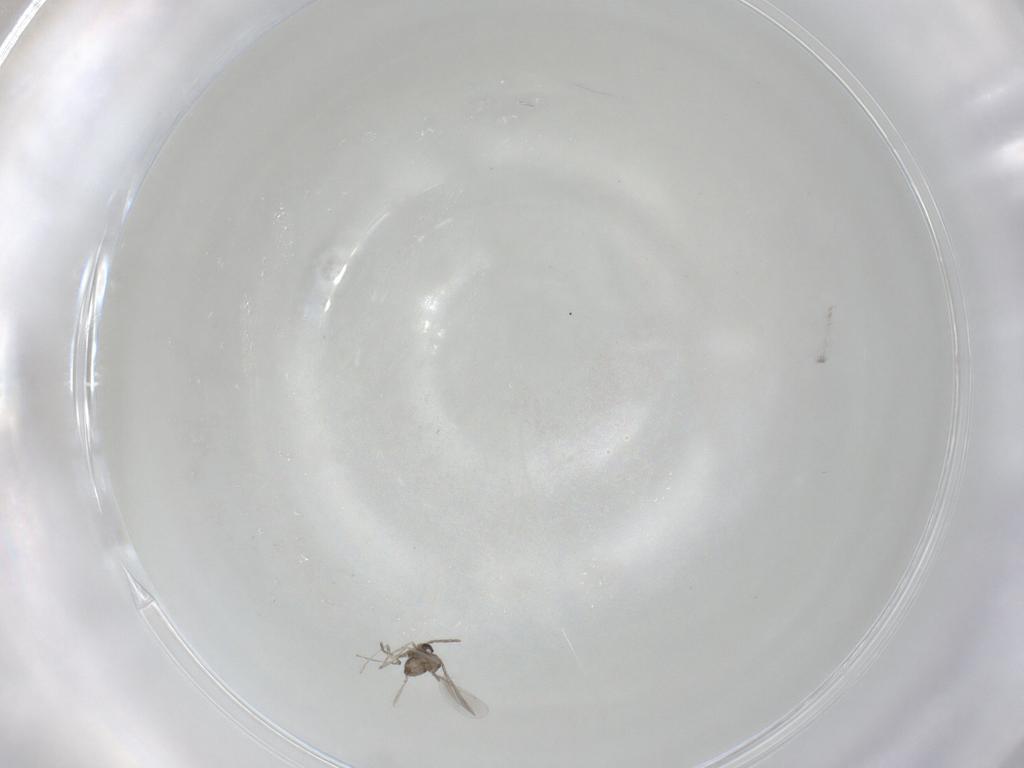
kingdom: Animalia
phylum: Arthropoda
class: Insecta
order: Diptera
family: Cecidomyiidae
